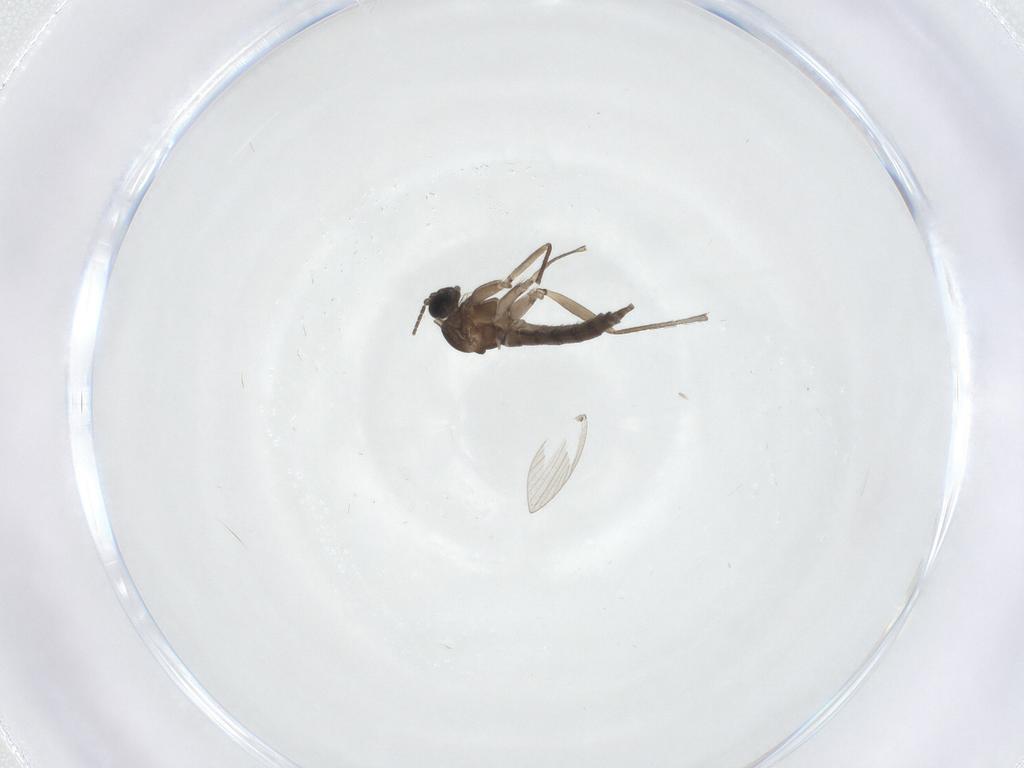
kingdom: Animalia
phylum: Arthropoda
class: Insecta
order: Diptera
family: Sciaridae
